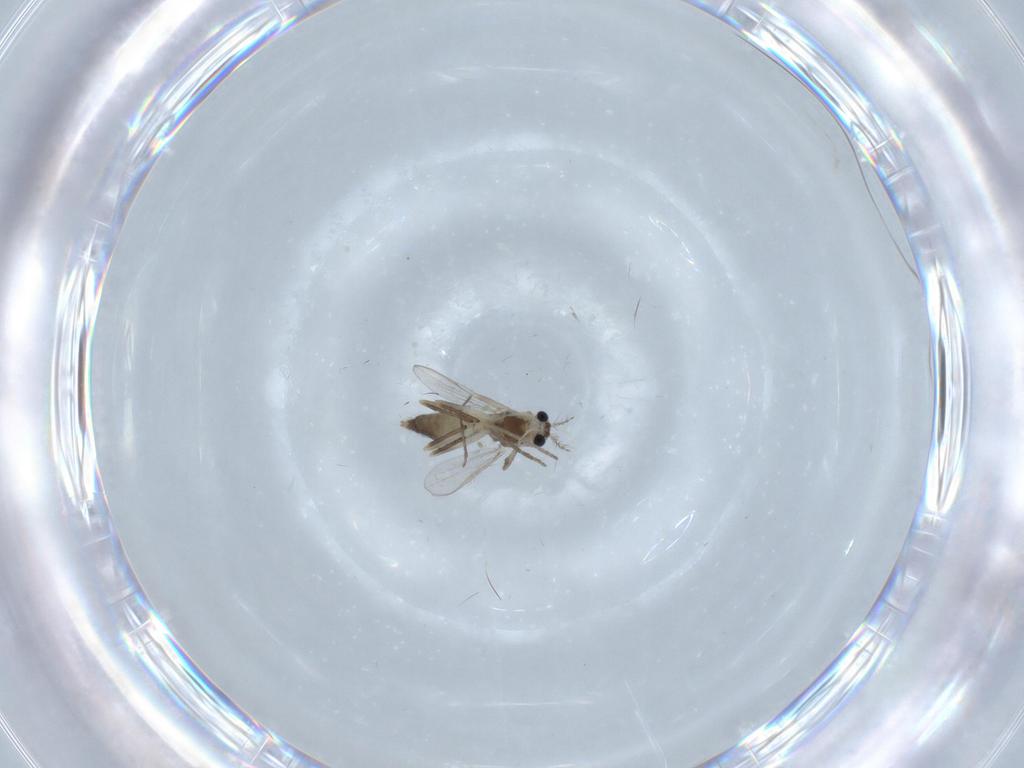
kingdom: Animalia
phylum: Arthropoda
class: Insecta
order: Diptera
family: Chironomidae
